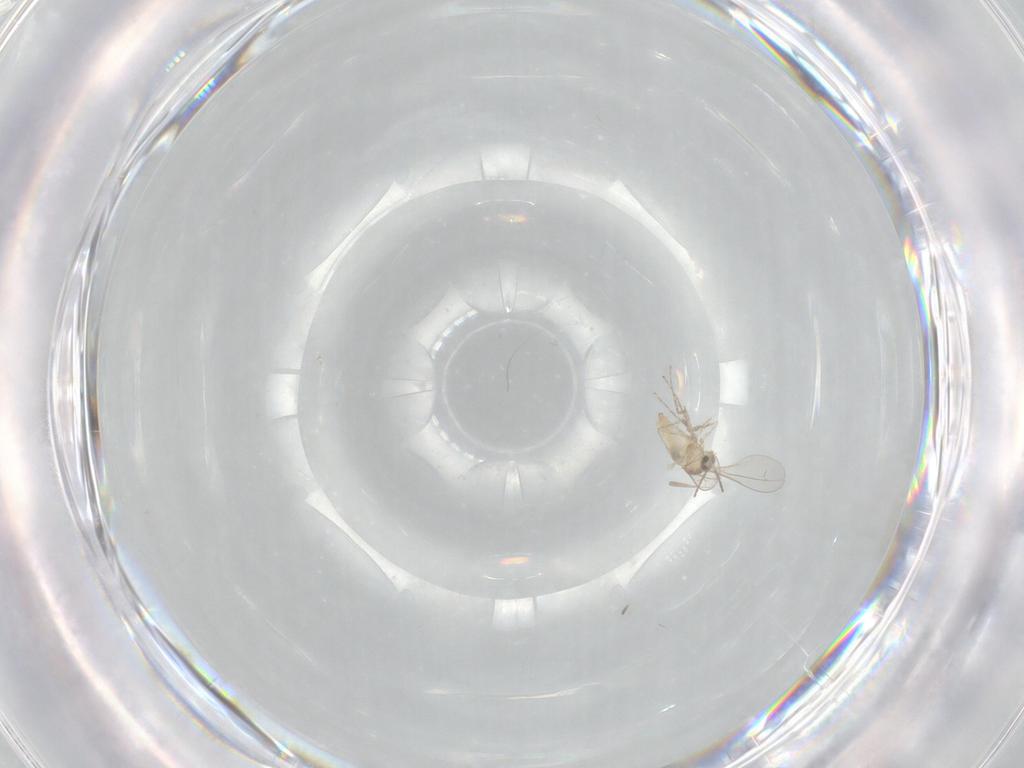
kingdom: Animalia
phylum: Arthropoda
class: Insecta
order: Diptera
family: Cecidomyiidae
